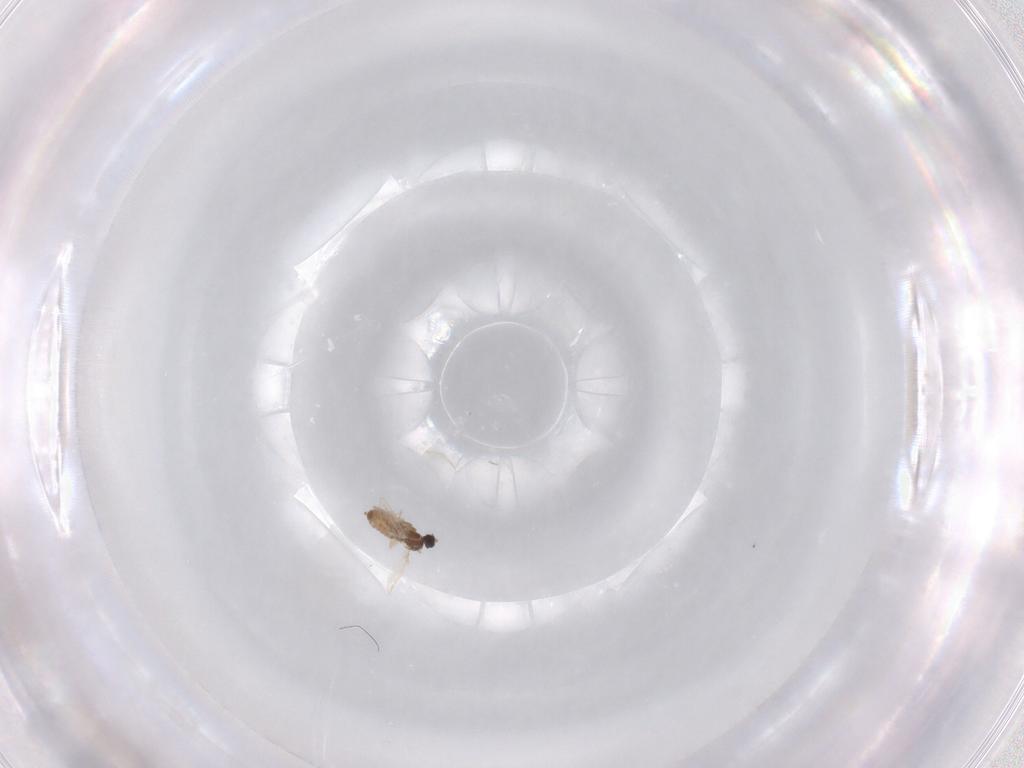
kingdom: Animalia
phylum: Arthropoda
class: Insecta
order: Diptera
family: Cecidomyiidae
